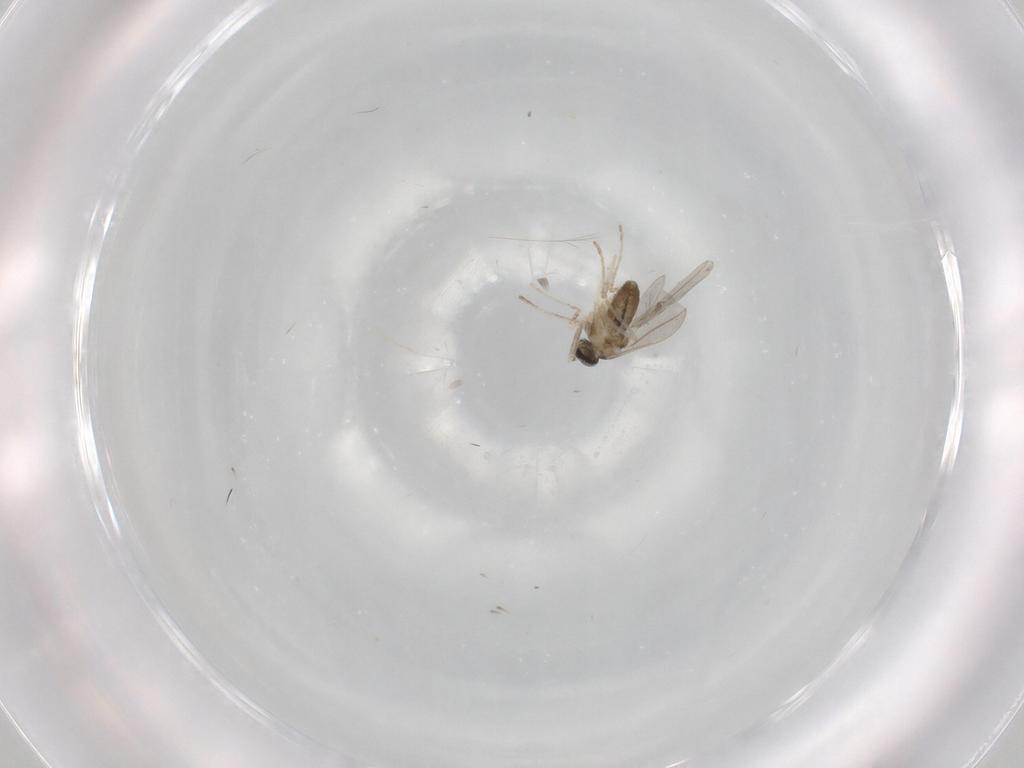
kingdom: Animalia
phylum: Arthropoda
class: Insecta
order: Diptera
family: Cecidomyiidae
